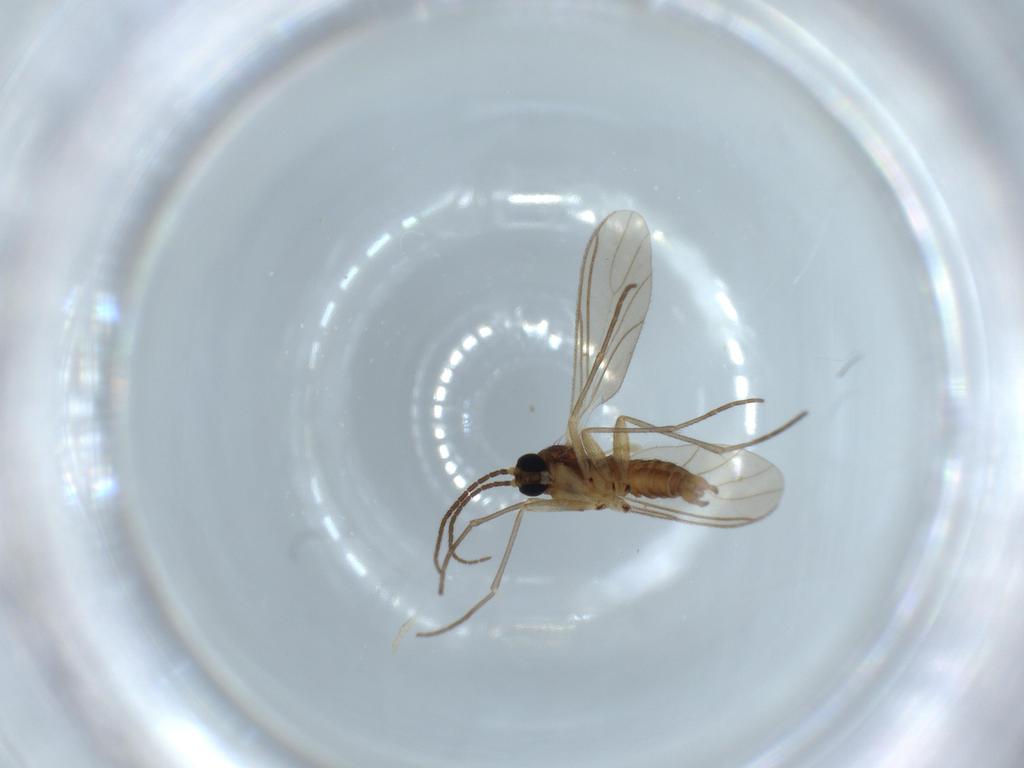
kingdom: Animalia
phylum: Arthropoda
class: Insecta
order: Diptera
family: Sciaridae
